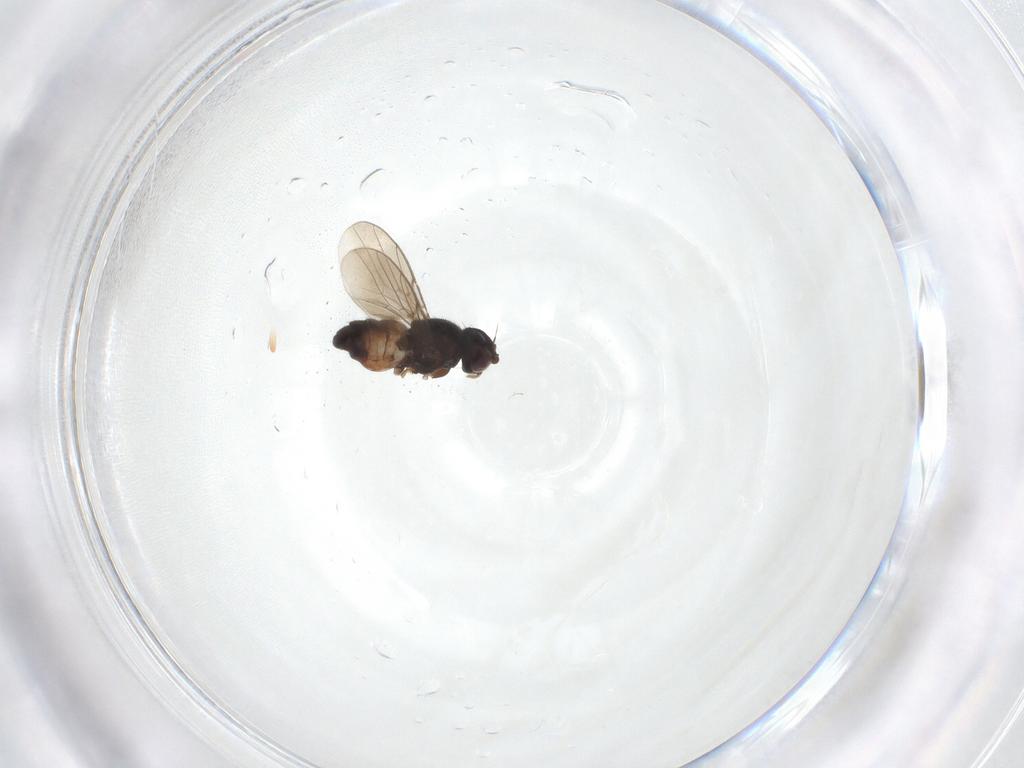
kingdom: Animalia
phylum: Arthropoda
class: Insecta
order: Diptera
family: Chloropidae
